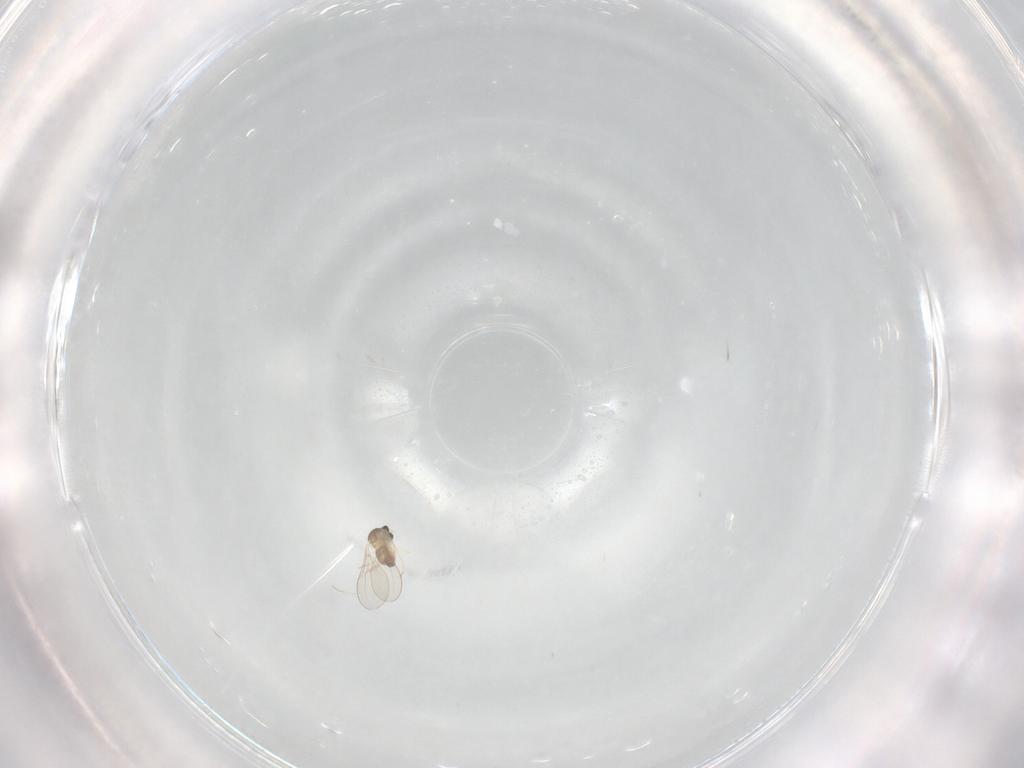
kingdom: Animalia
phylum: Arthropoda
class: Insecta
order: Diptera
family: Cecidomyiidae
